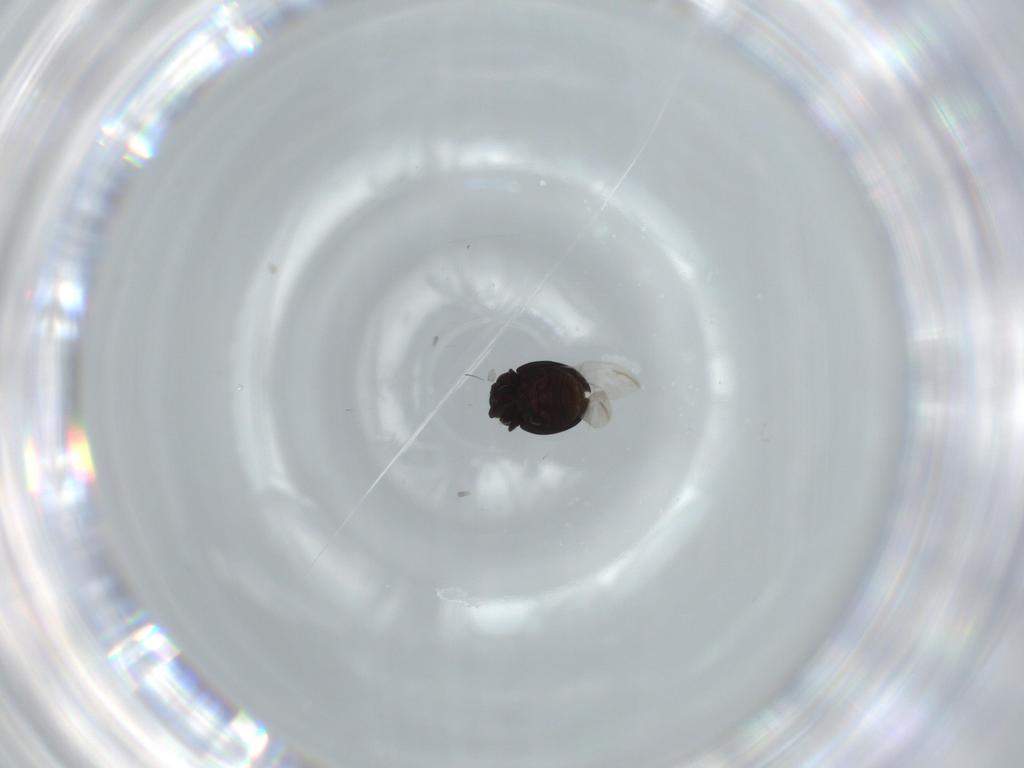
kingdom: Animalia
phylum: Arthropoda
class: Insecta
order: Coleoptera
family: Coccinellidae
